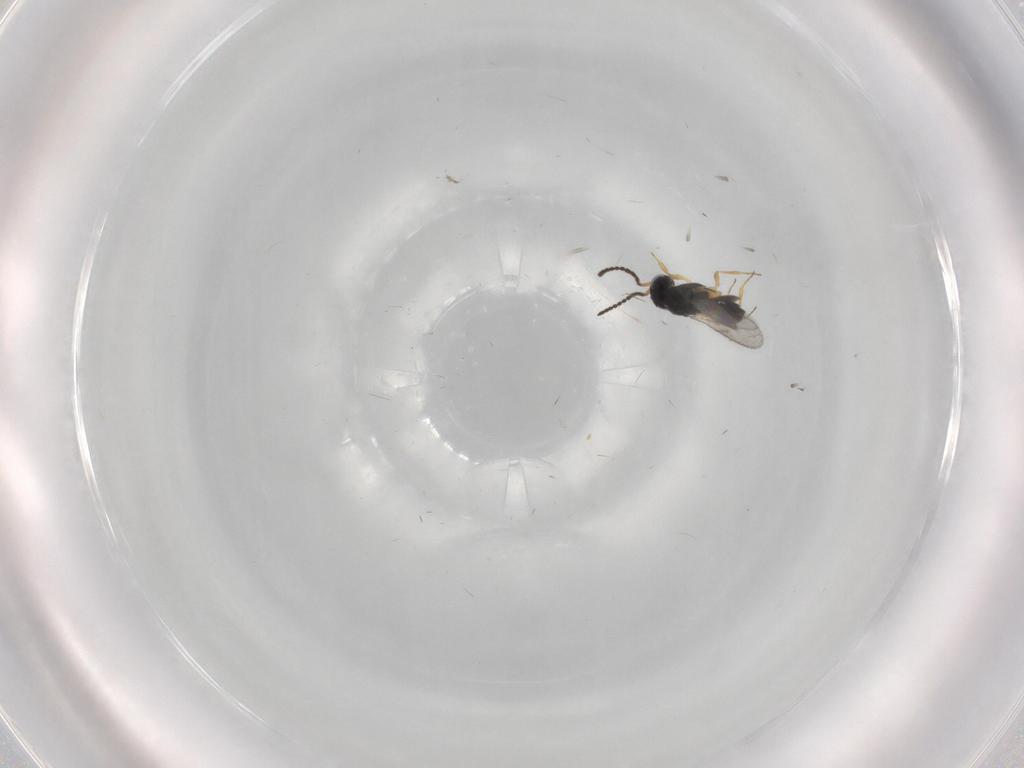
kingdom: Animalia
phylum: Arthropoda
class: Insecta
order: Hymenoptera
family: Scelionidae
